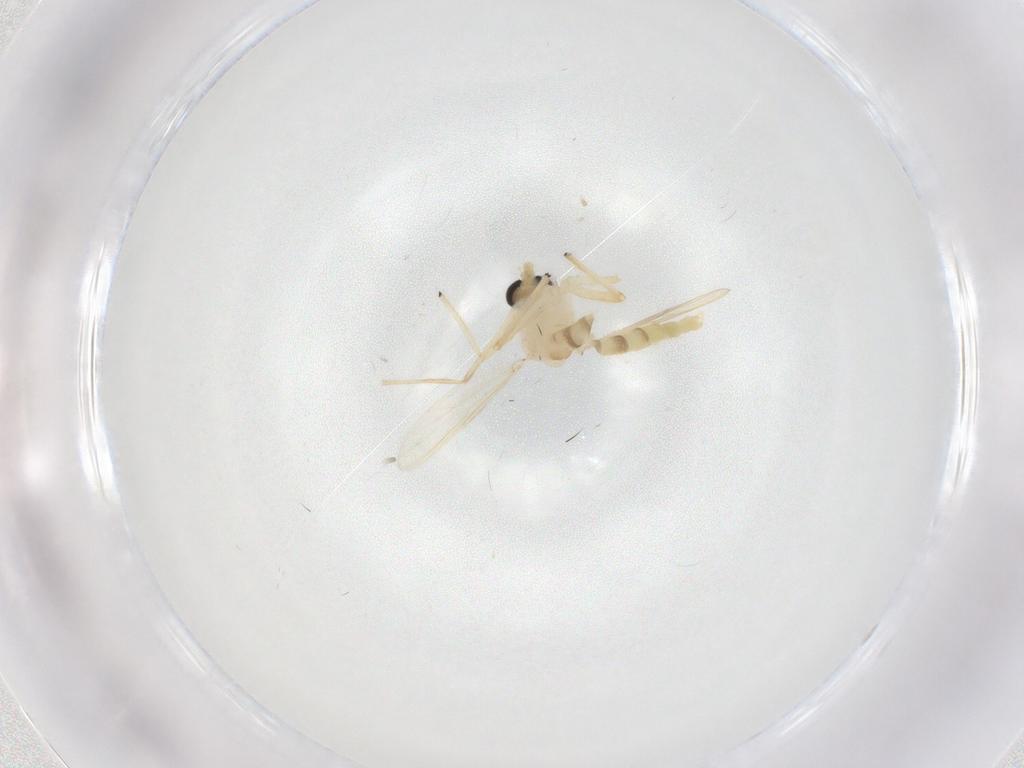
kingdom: Animalia
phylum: Arthropoda
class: Insecta
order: Diptera
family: Chironomidae
